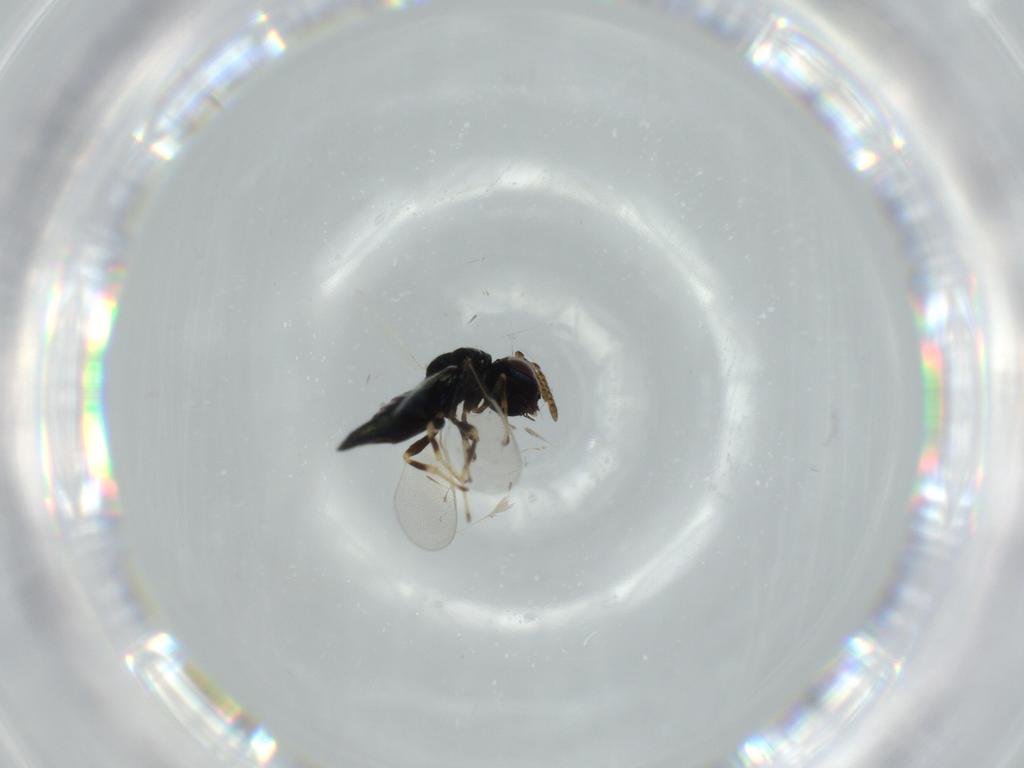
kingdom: Animalia
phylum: Arthropoda
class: Insecta
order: Hymenoptera
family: Pteromalidae
